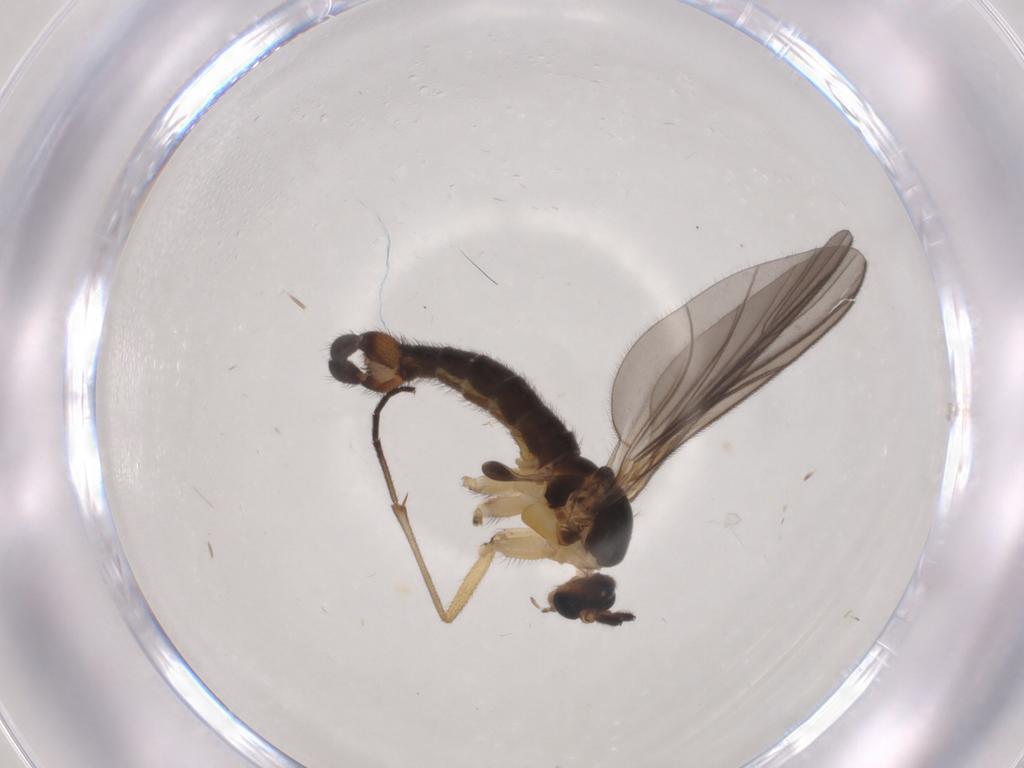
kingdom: Animalia
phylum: Arthropoda
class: Insecta
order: Diptera
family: Sciaridae
